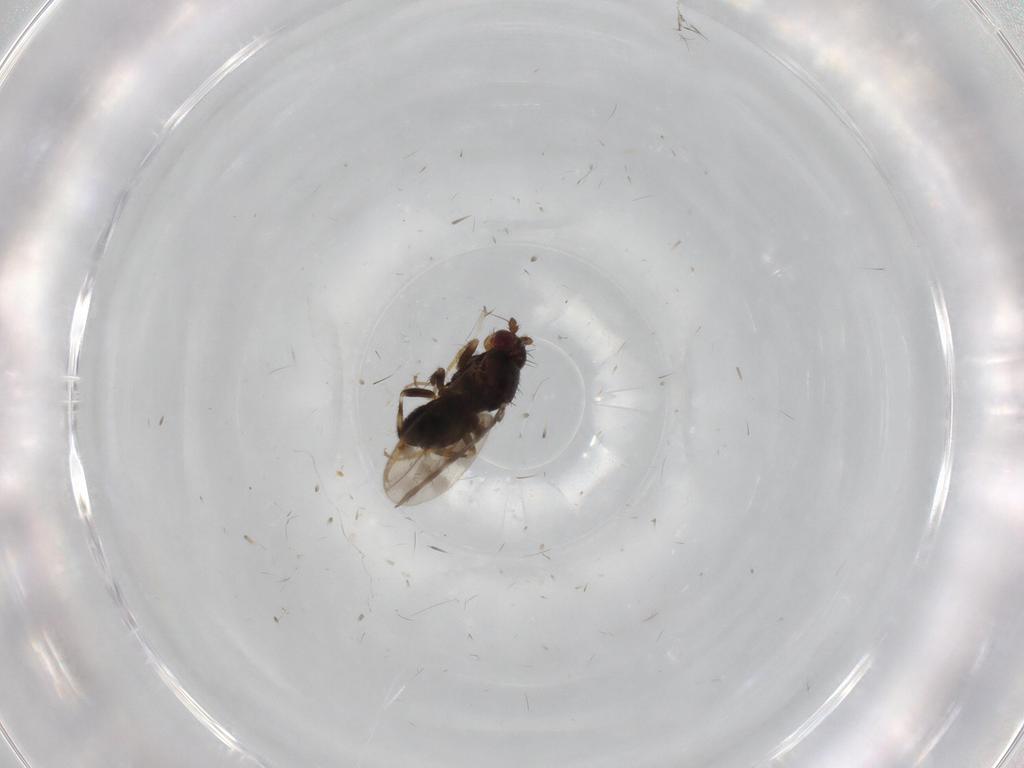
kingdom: Animalia
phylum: Arthropoda
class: Insecta
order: Diptera
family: Sphaeroceridae
